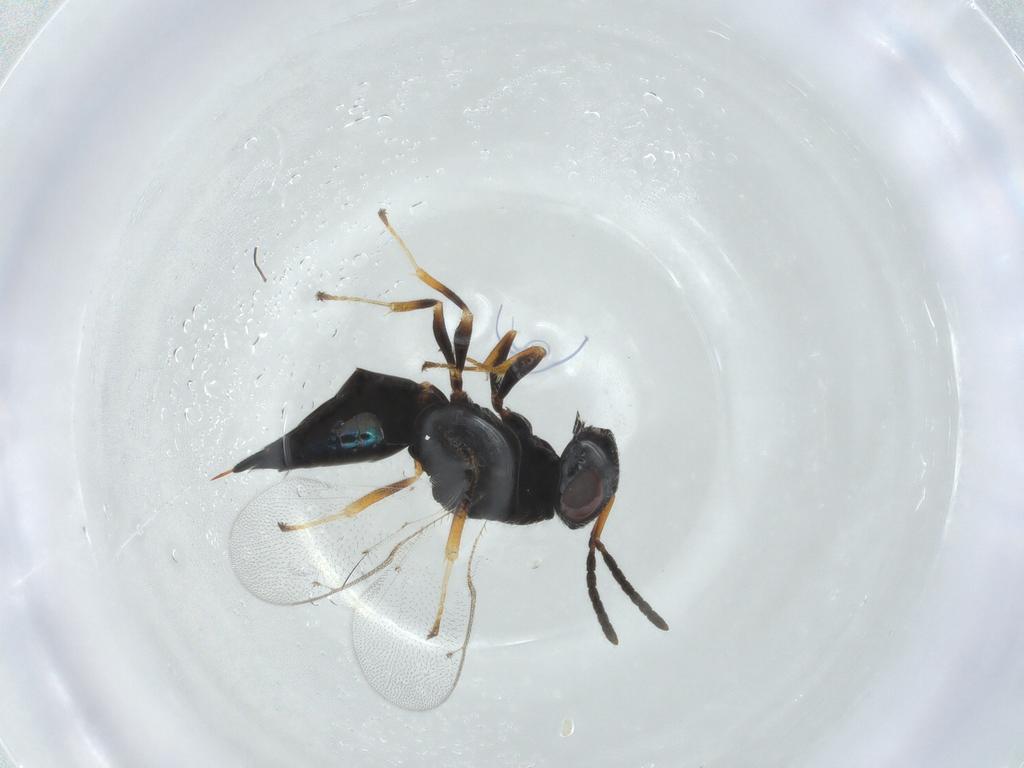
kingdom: Animalia
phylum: Arthropoda
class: Insecta
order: Hymenoptera
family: Pteromalidae
